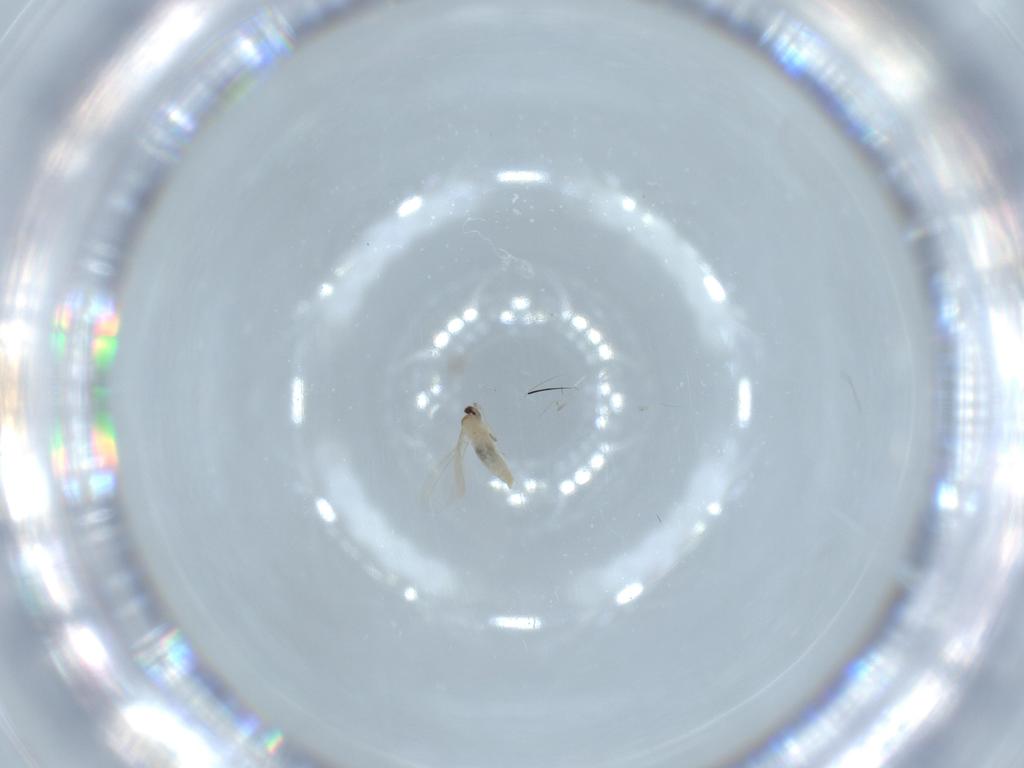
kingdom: Animalia
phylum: Arthropoda
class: Insecta
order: Diptera
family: Cecidomyiidae
